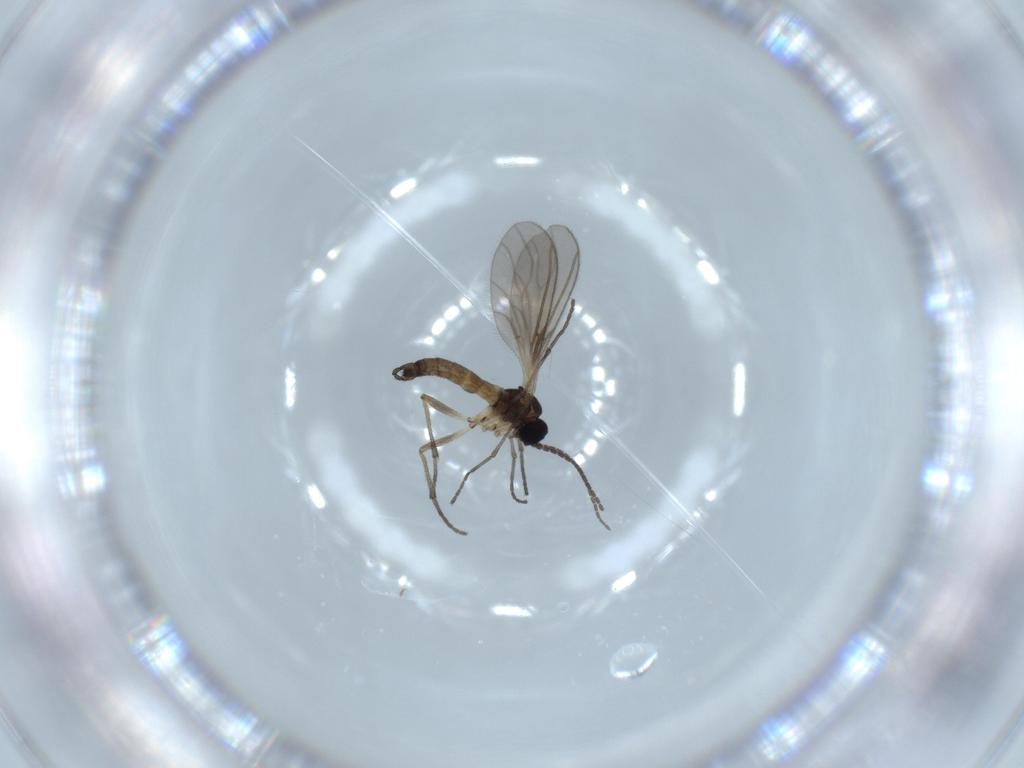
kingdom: Animalia
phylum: Arthropoda
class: Insecta
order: Diptera
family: Sciaridae
